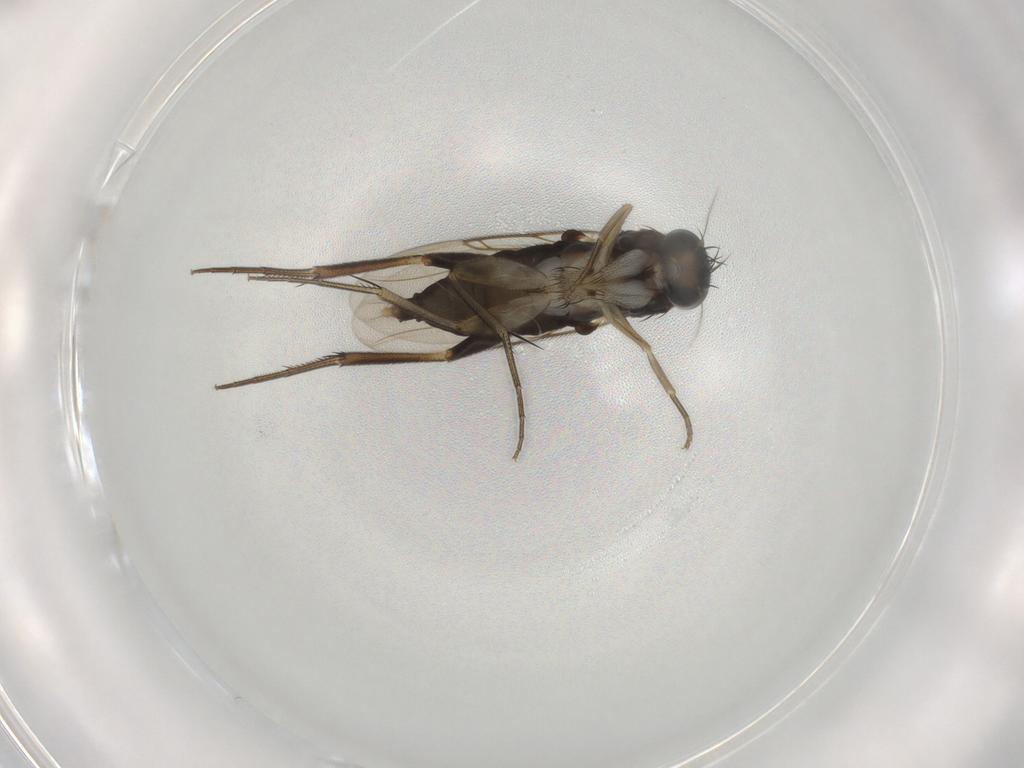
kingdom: Animalia
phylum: Arthropoda
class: Insecta
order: Diptera
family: Phoridae
